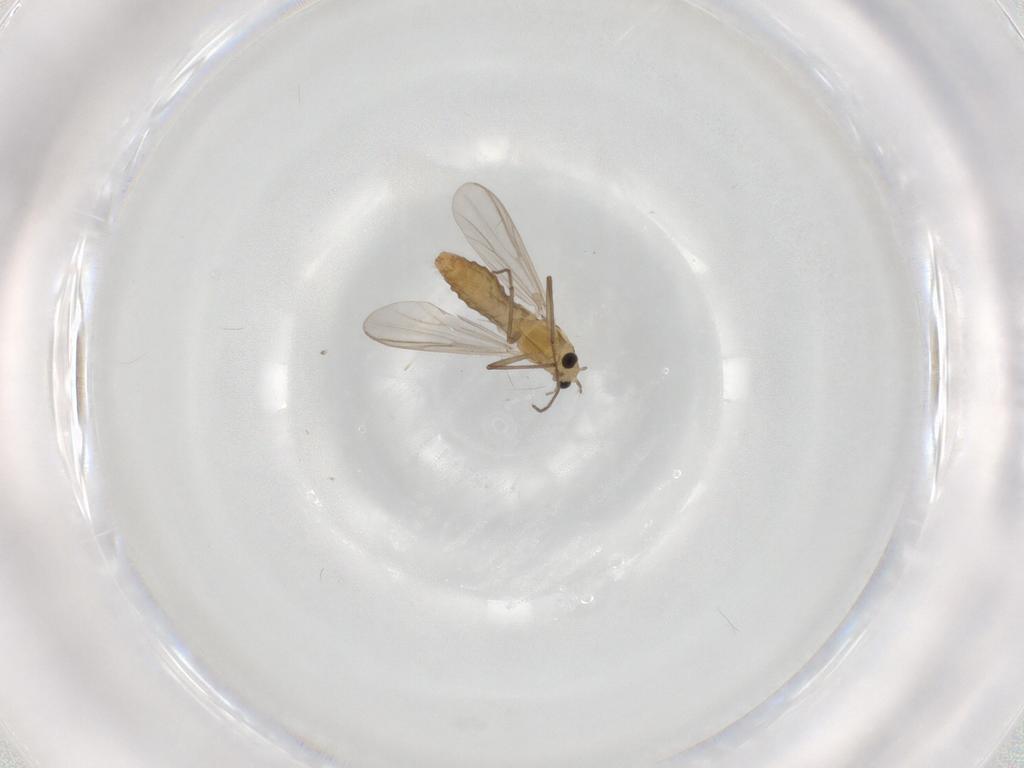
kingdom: Animalia
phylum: Arthropoda
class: Insecta
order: Diptera
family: Chironomidae
